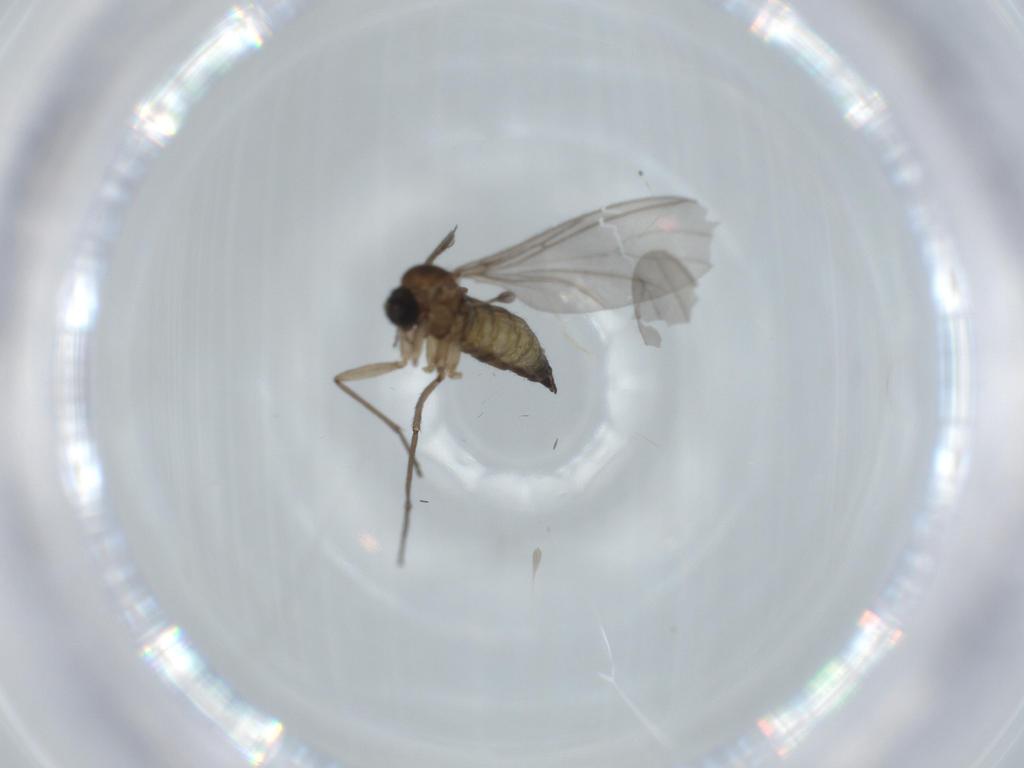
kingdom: Animalia
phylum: Arthropoda
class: Insecta
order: Diptera
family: Sciaridae
